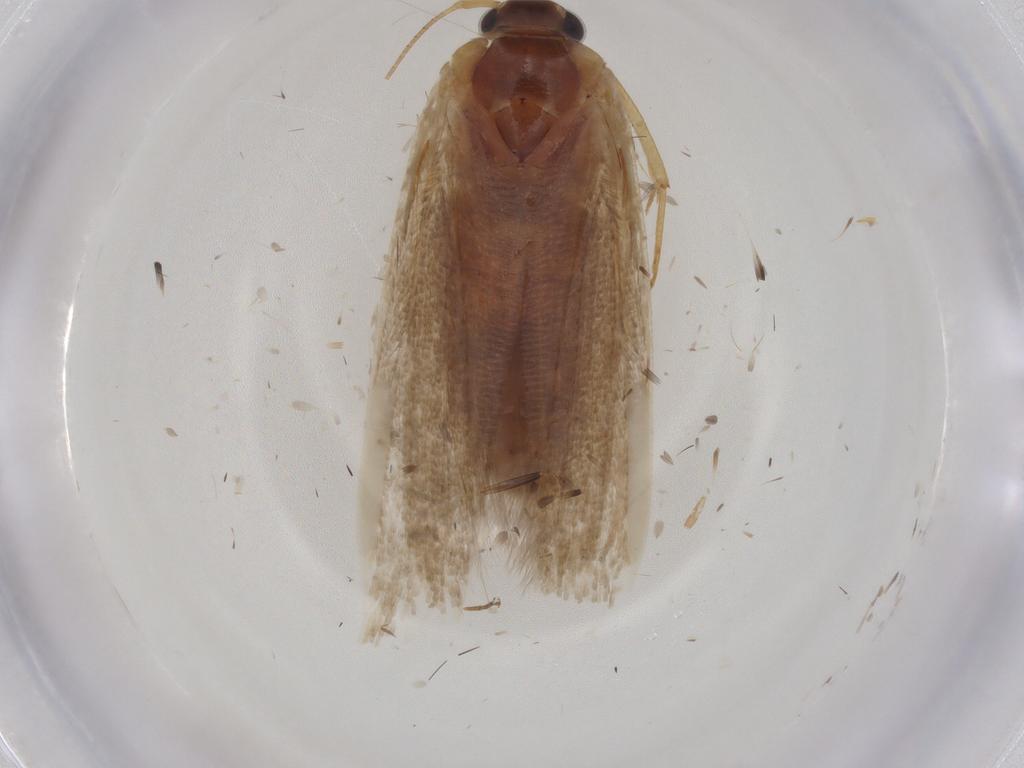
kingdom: Animalia
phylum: Arthropoda
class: Insecta
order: Lepidoptera
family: Blastobasidae
